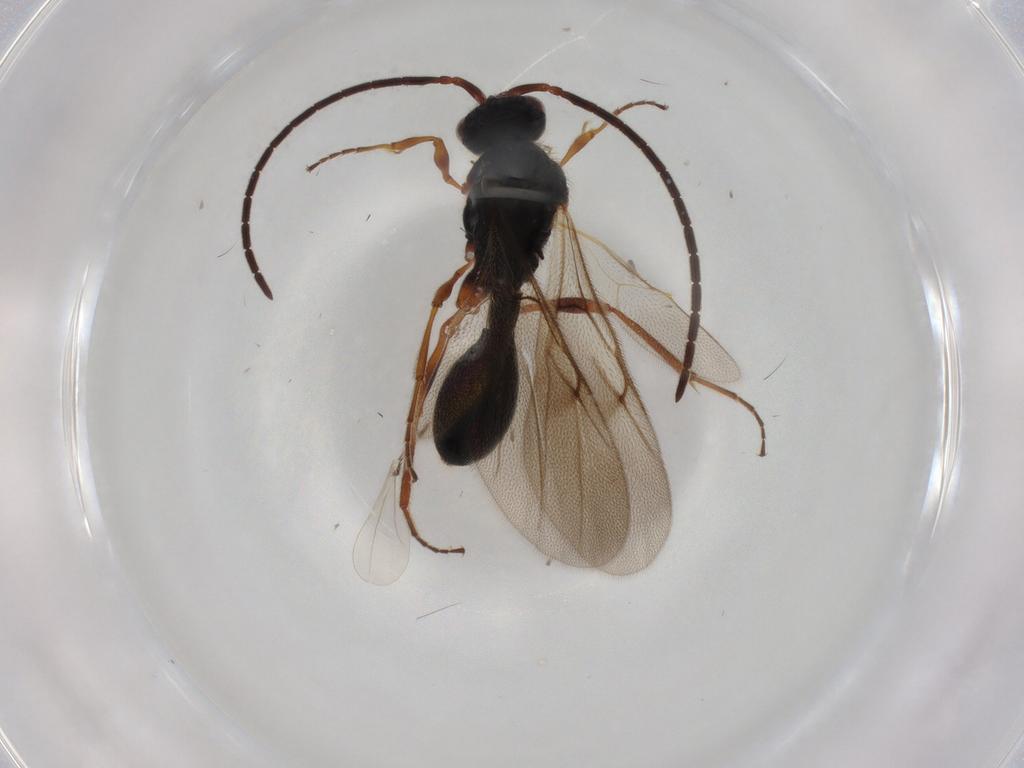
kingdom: Animalia
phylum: Arthropoda
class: Insecta
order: Hymenoptera
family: Ichneumonidae
